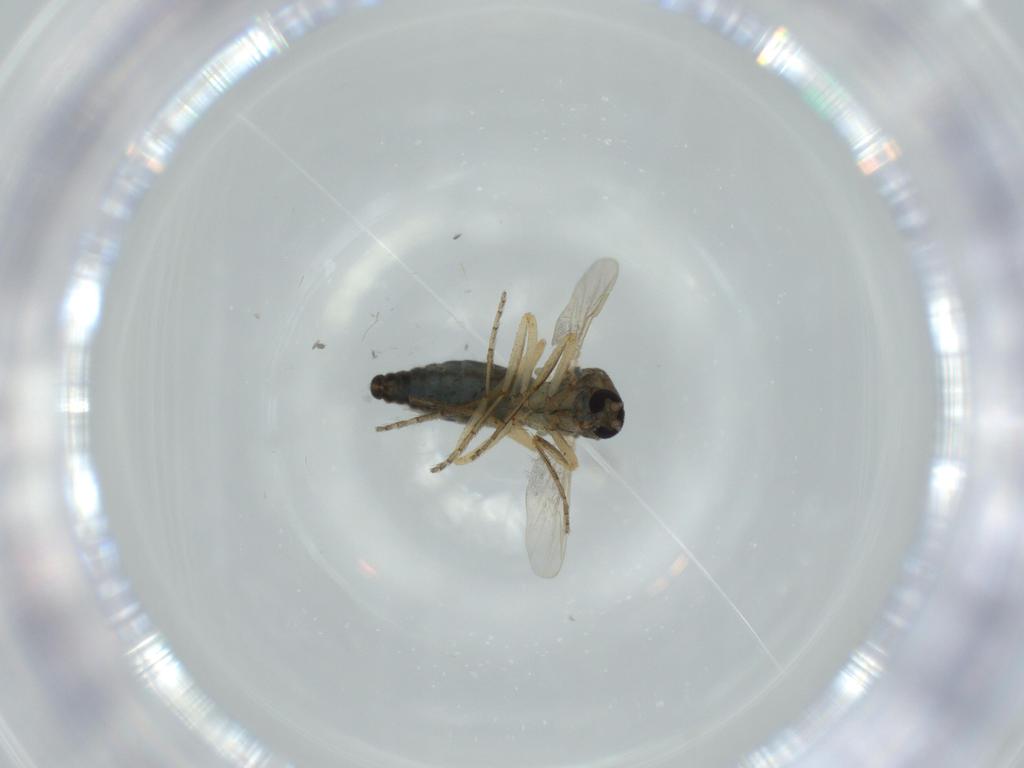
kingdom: Animalia
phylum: Arthropoda
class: Insecta
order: Diptera
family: Ceratopogonidae
